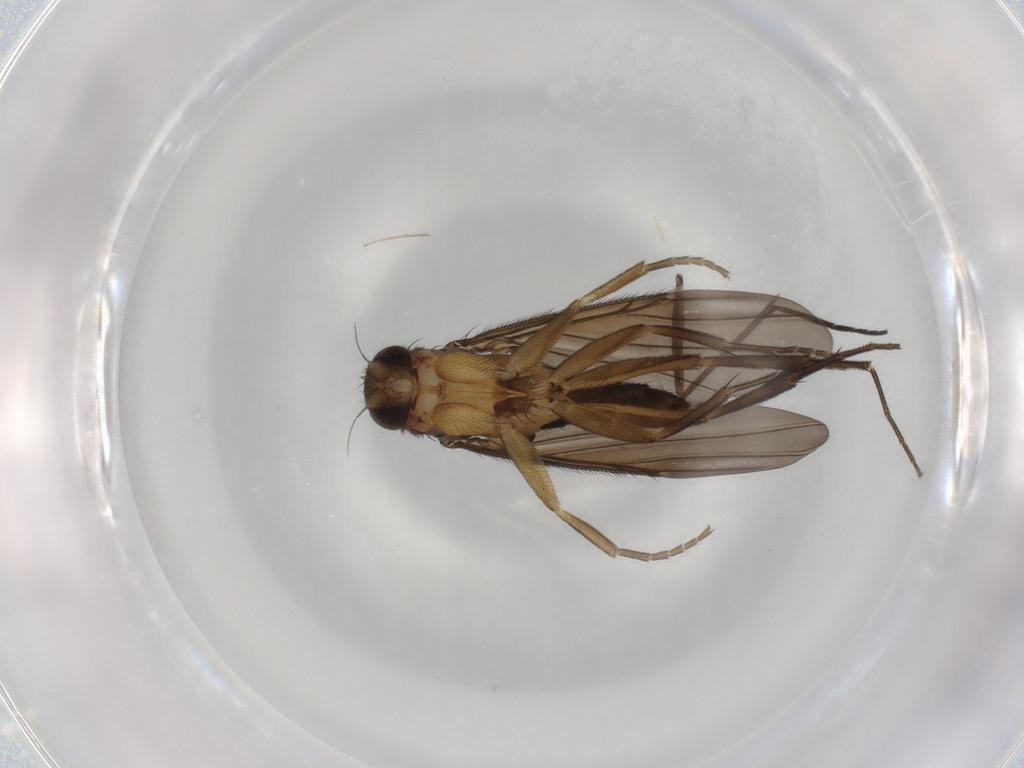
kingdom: Animalia
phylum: Arthropoda
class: Insecta
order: Diptera
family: Sciaridae
